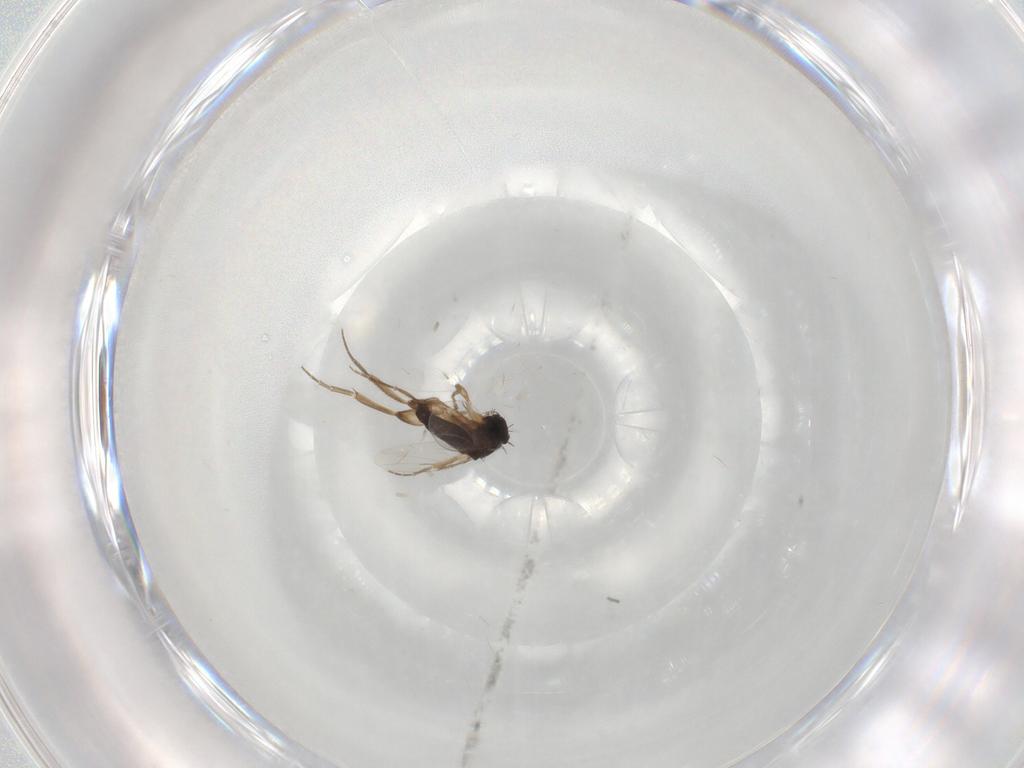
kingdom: Animalia
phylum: Arthropoda
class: Insecta
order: Diptera
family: Phoridae
